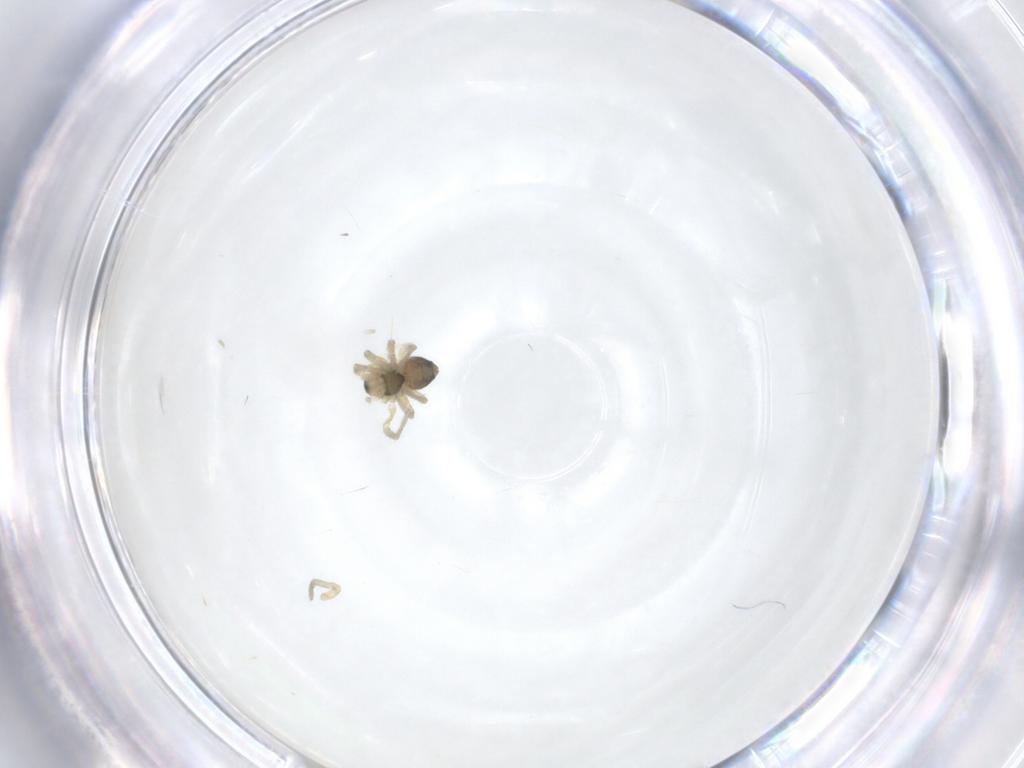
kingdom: Animalia
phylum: Arthropoda
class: Arachnida
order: Araneae
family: Linyphiidae
